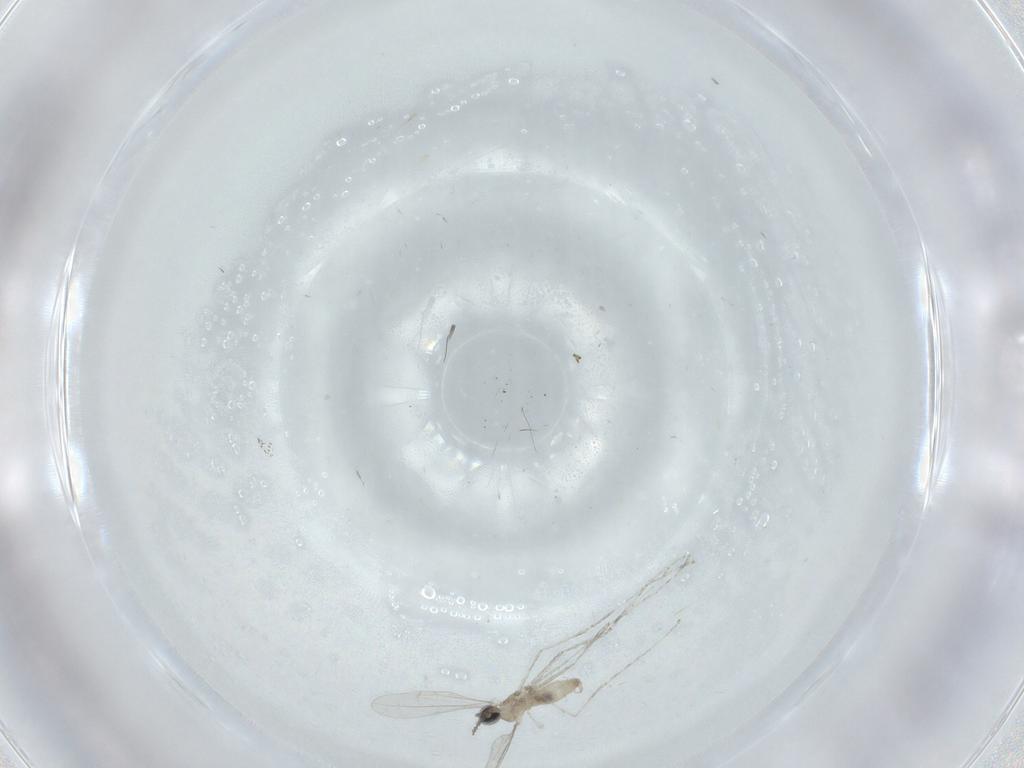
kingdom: Animalia
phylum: Arthropoda
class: Insecta
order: Diptera
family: Cecidomyiidae
